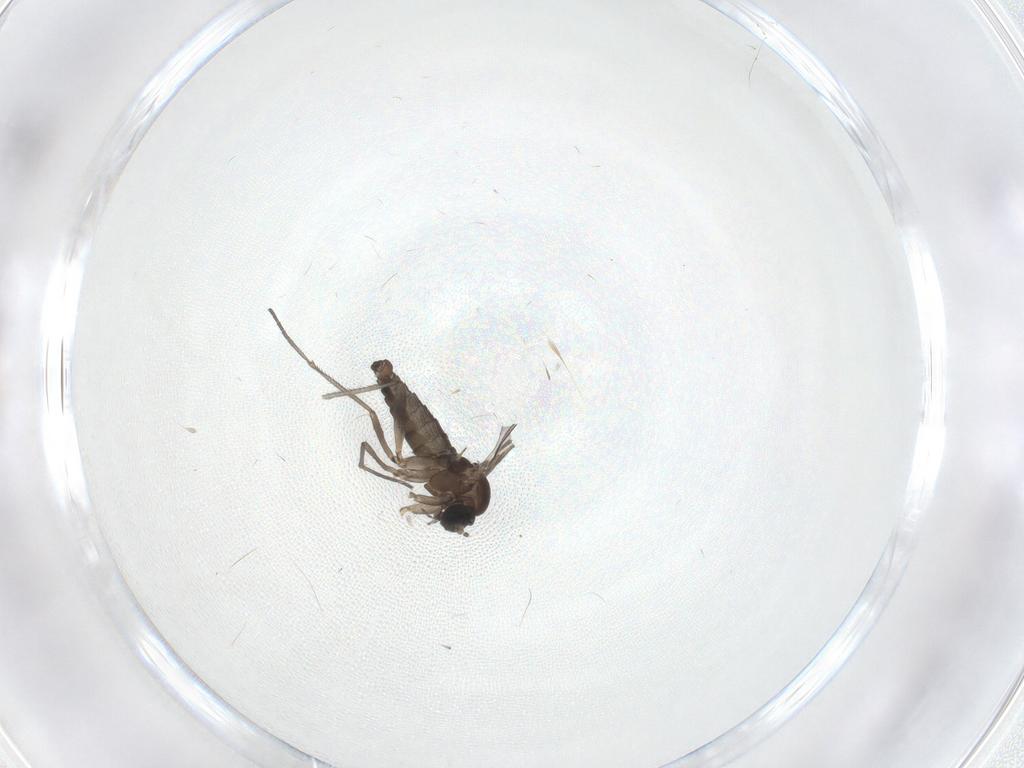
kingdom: Animalia
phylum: Arthropoda
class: Insecta
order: Diptera
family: Sciaridae
